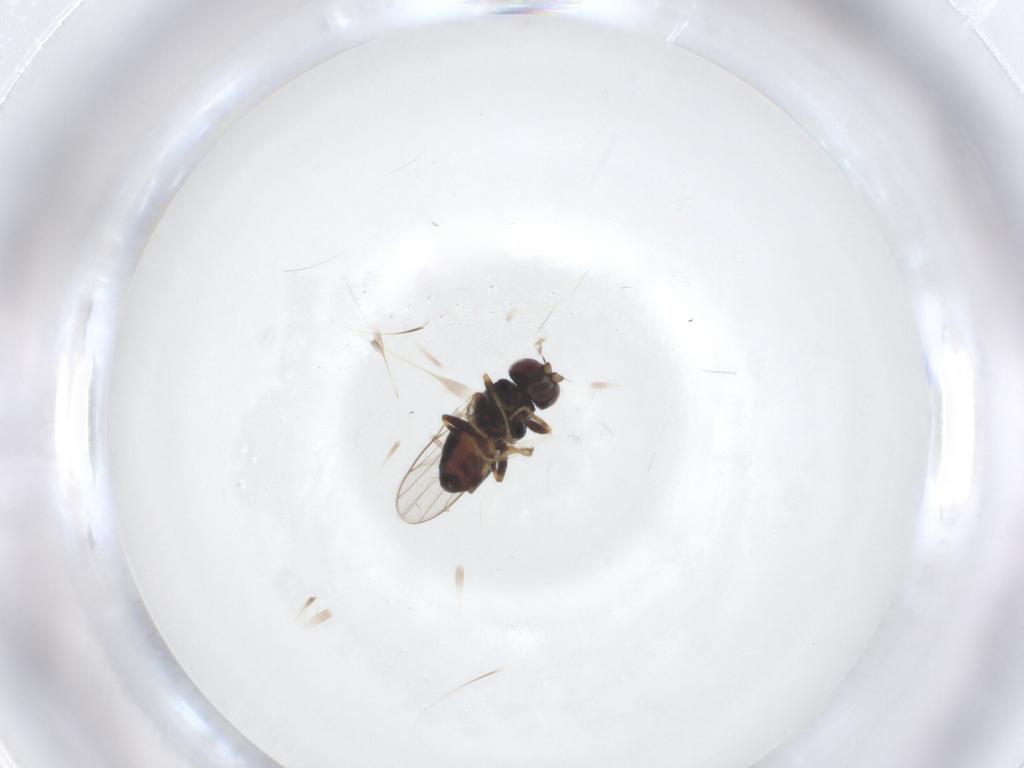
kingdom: Animalia
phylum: Arthropoda
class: Insecta
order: Diptera
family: Chloropidae
